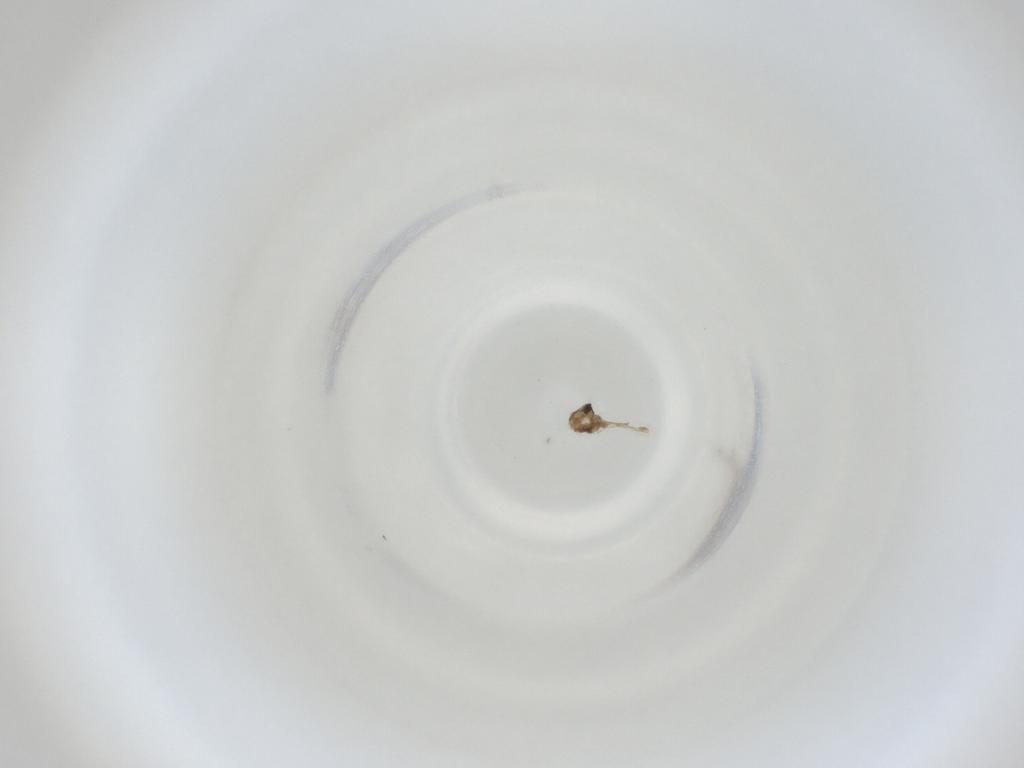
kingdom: Animalia
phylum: Arthropoda
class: Insecta
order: Diptera
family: Cecidomyiidae
